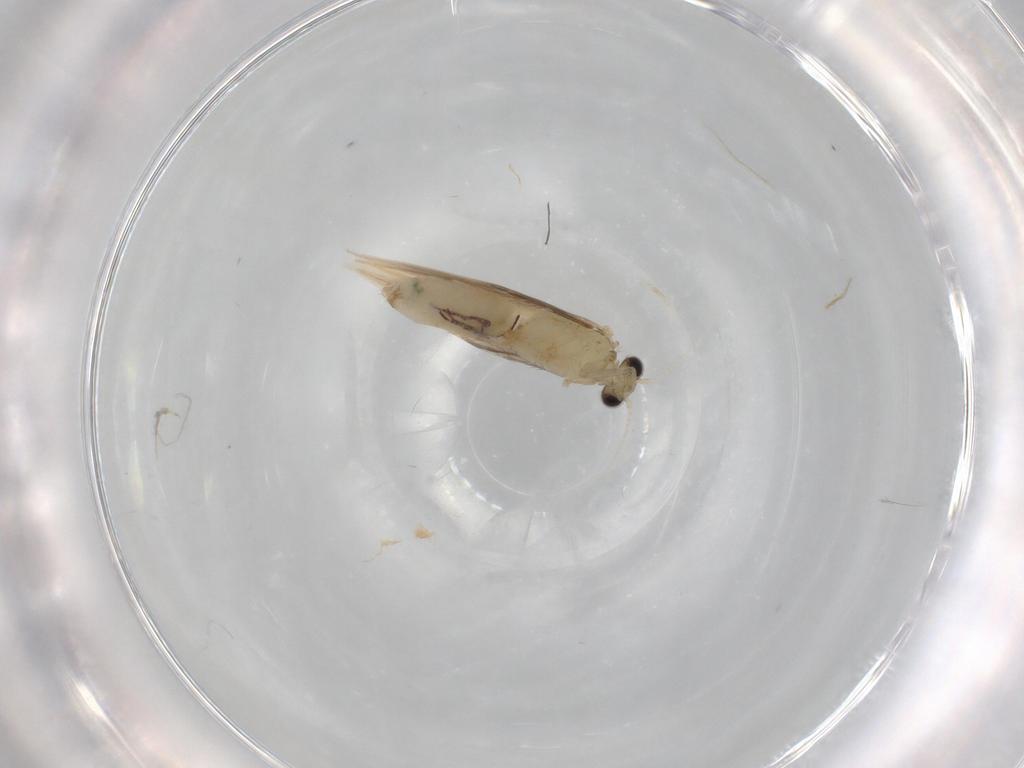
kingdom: Animalia
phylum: Arthropoda
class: Insecta
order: Trichoptera
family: Hydroptilidae
